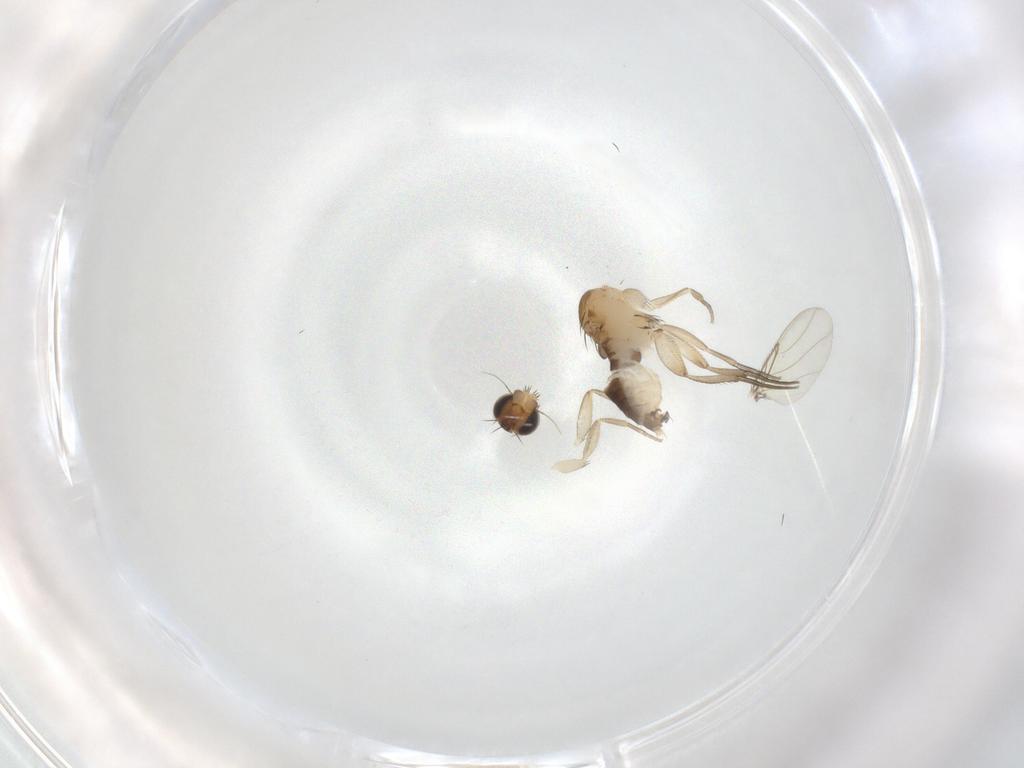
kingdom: Animalia
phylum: Arthropoda
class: Insecta
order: Diptera
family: Phoridae
